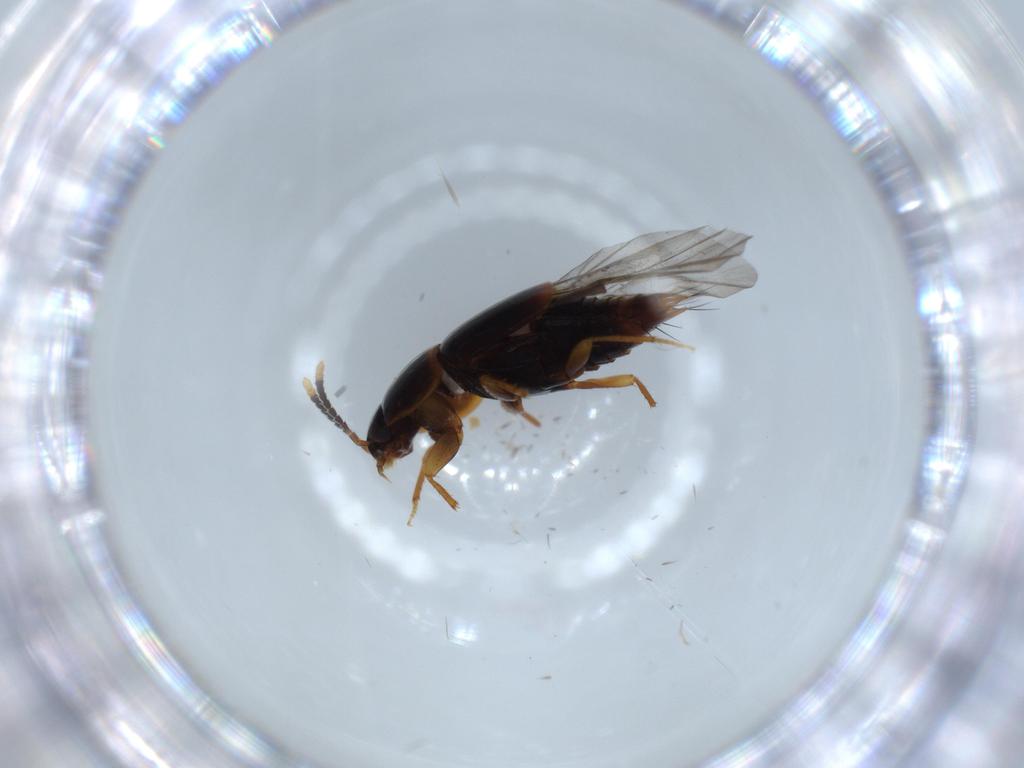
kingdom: Animalia
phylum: Arthropoda
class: Insecta
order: Coleoptera
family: Staphylinidae
